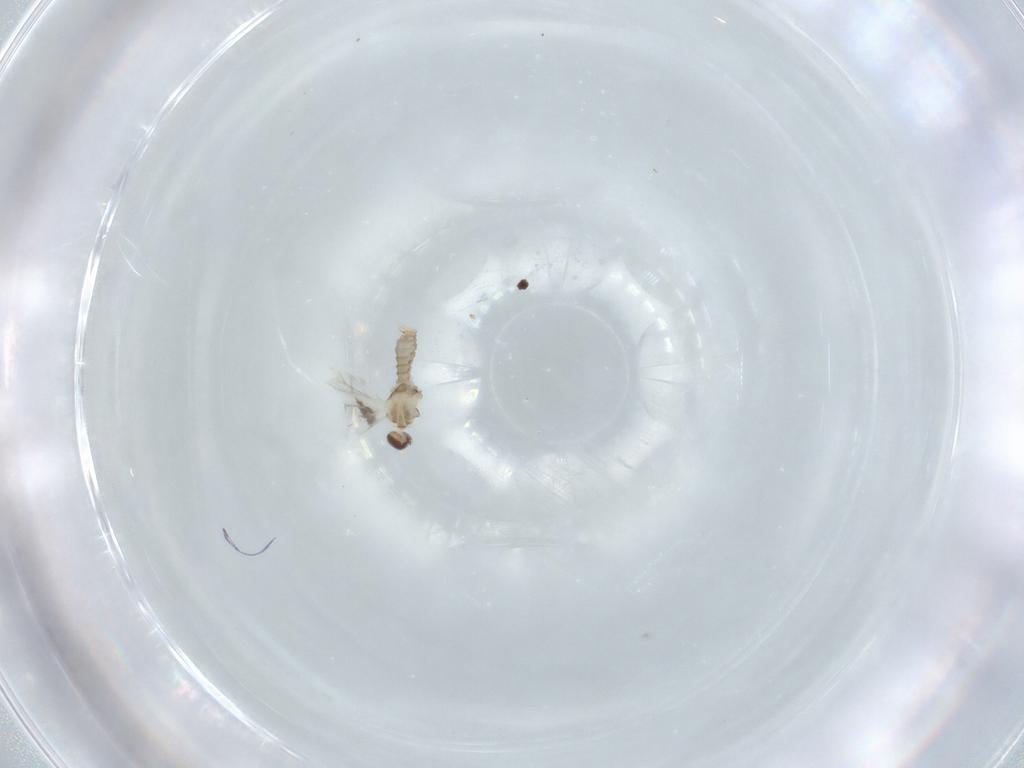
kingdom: Animalia
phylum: Arthropoda
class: Insecta
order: Diptera
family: Cecidomyiidae
